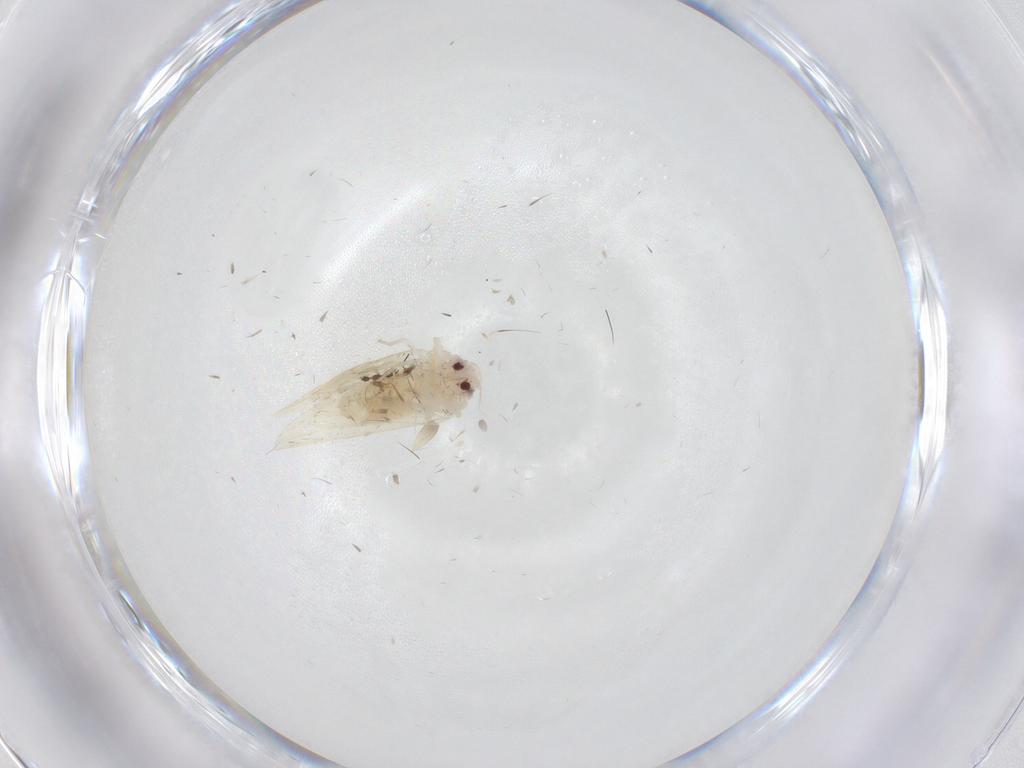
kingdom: Animalia
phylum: Arthropoda
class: Insecta
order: Hemiptera
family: Aleyrodidae
